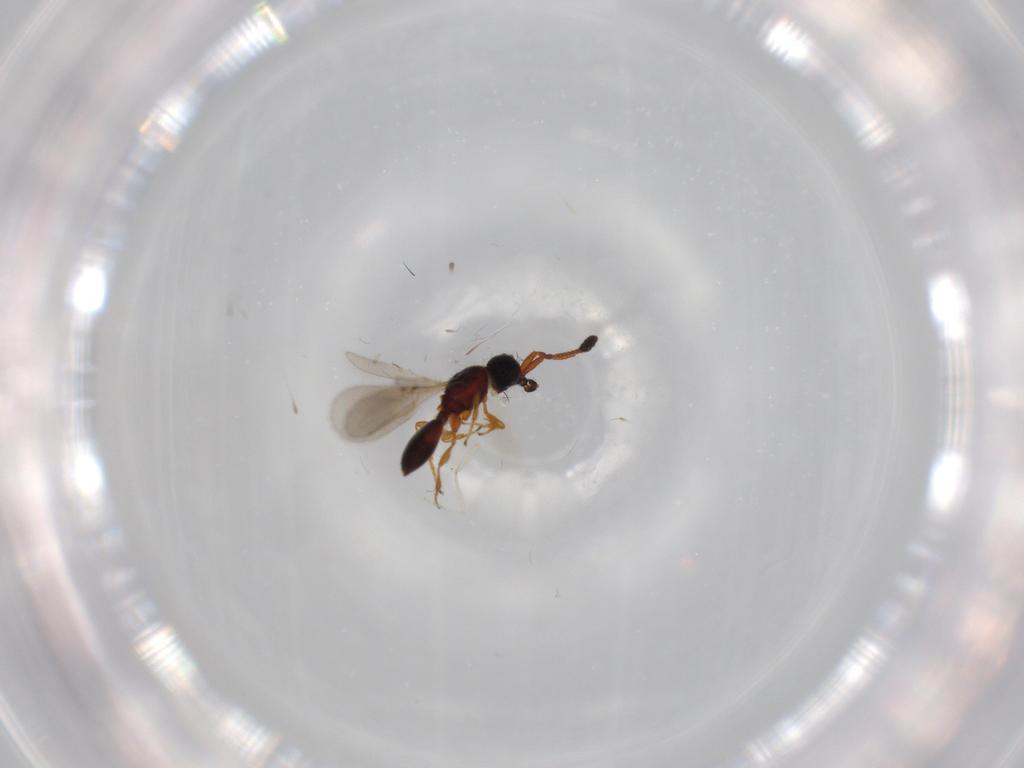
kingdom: Animalia
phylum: Arthropoda
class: Insecta
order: Hymenoptera
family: Diapriidae
